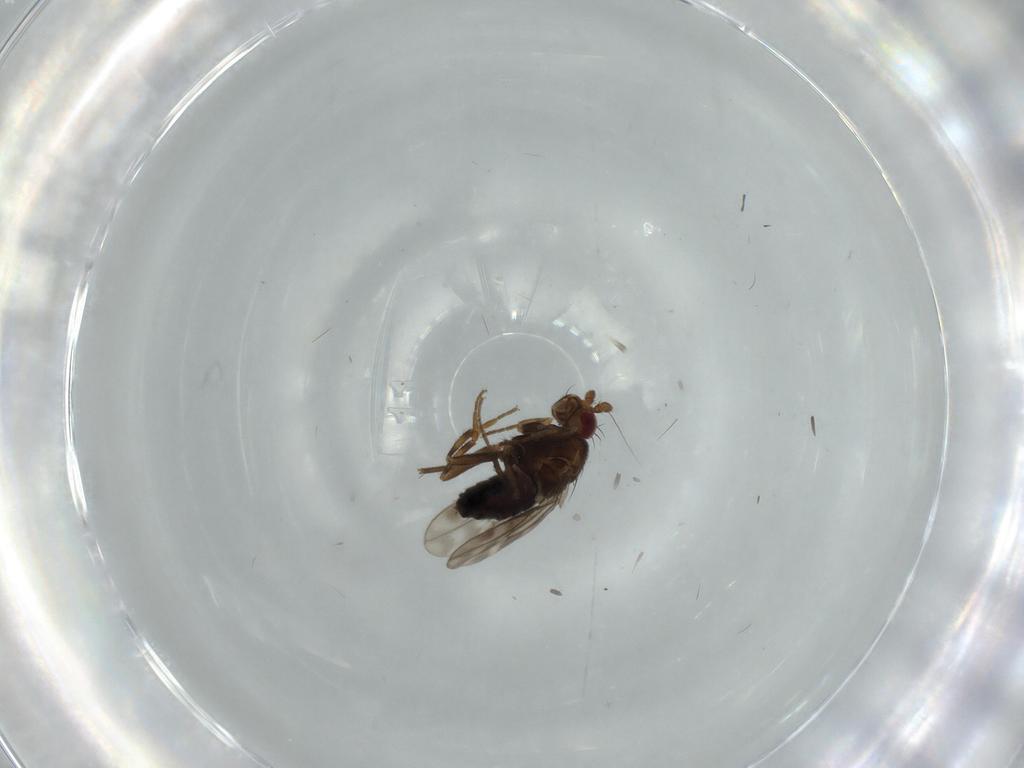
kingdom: Animalia
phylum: Arthropoda
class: Insecta
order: Diptera
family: Sphaeroceridae
